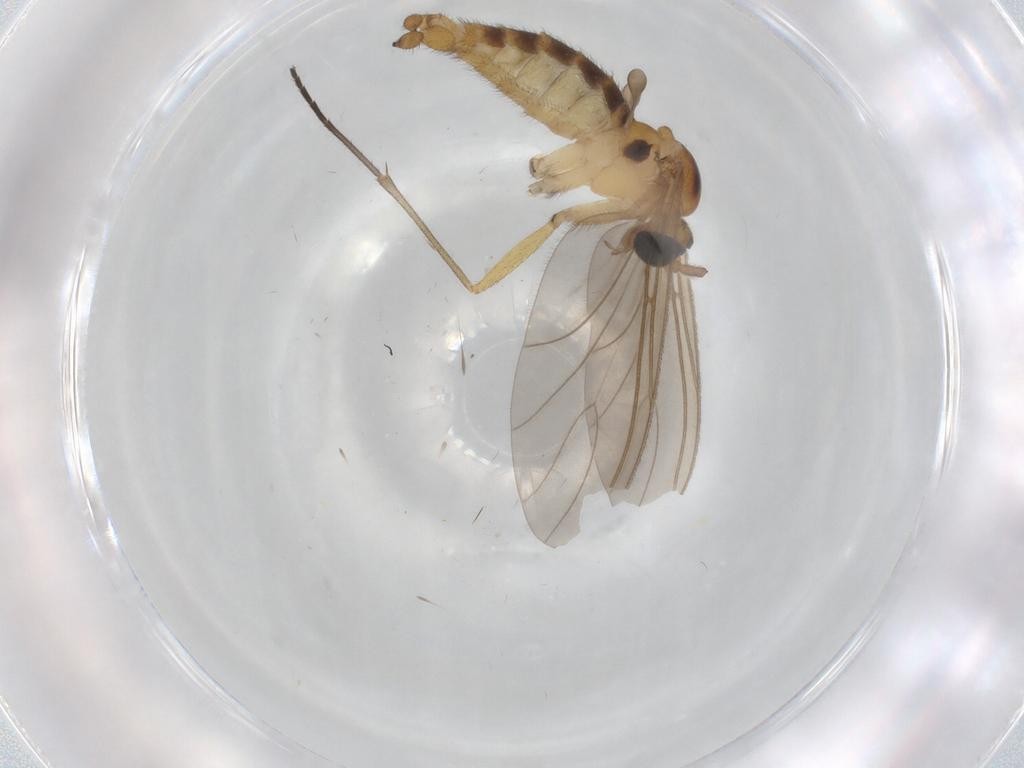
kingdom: Animalia
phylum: Arthropoda
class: Insecta
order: Diptera
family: Sciaridae
